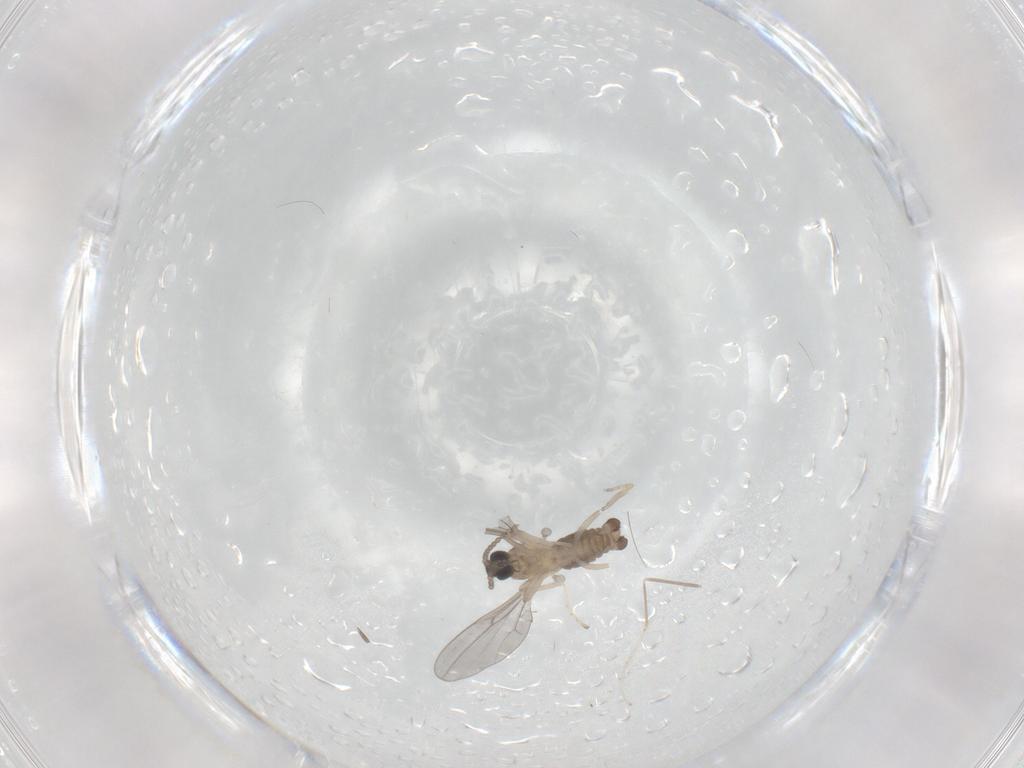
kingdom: Animalia
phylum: Arthropoda
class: Insecta
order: Diptera
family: Cecidomyiidae
